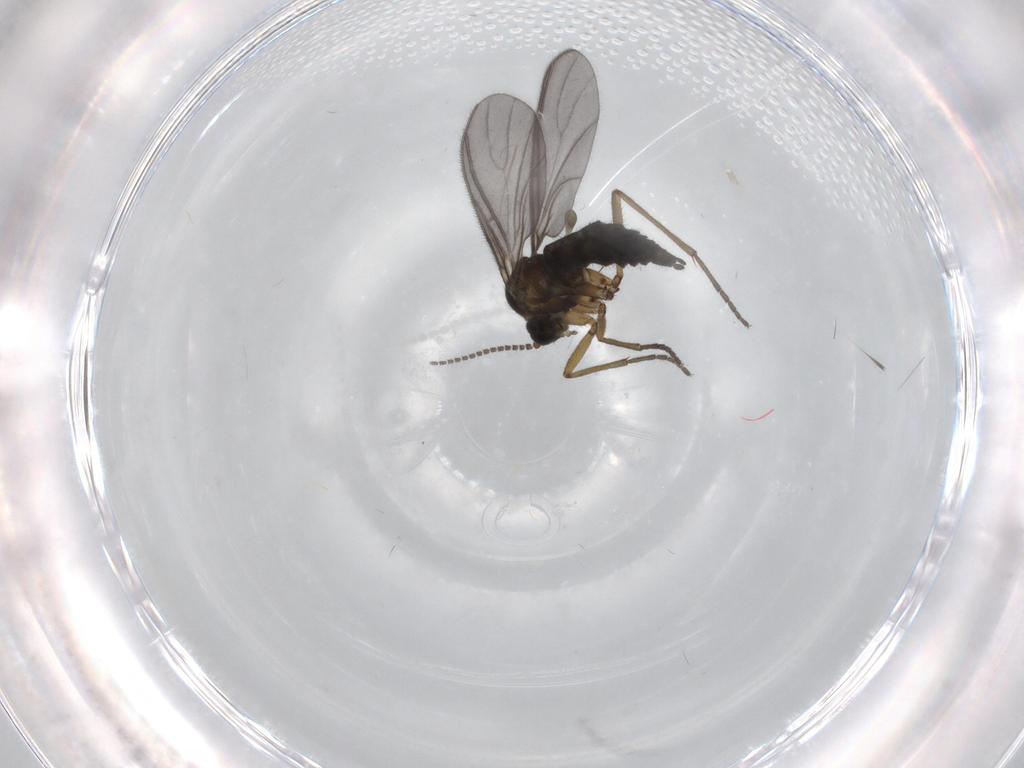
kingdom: Animalia
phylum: Arthropoda
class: Insecta
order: Diptera
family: Sciaridae
